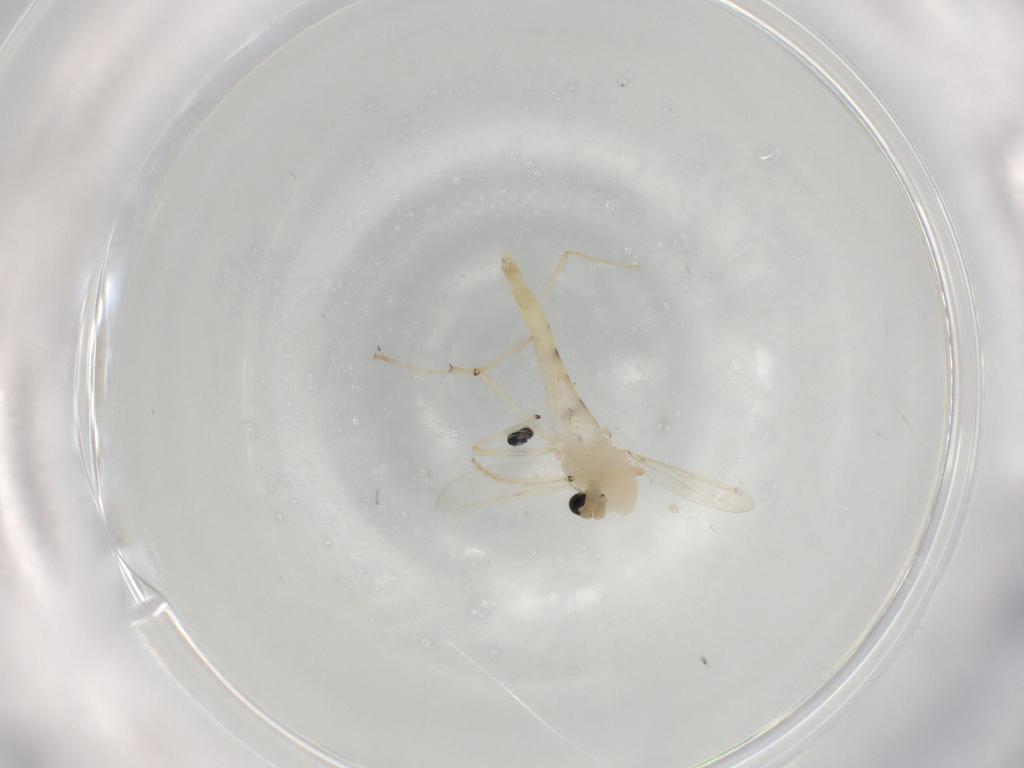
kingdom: Animalia
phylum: Arthropoda
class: Insecta
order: Diptera
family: Chironomidae
